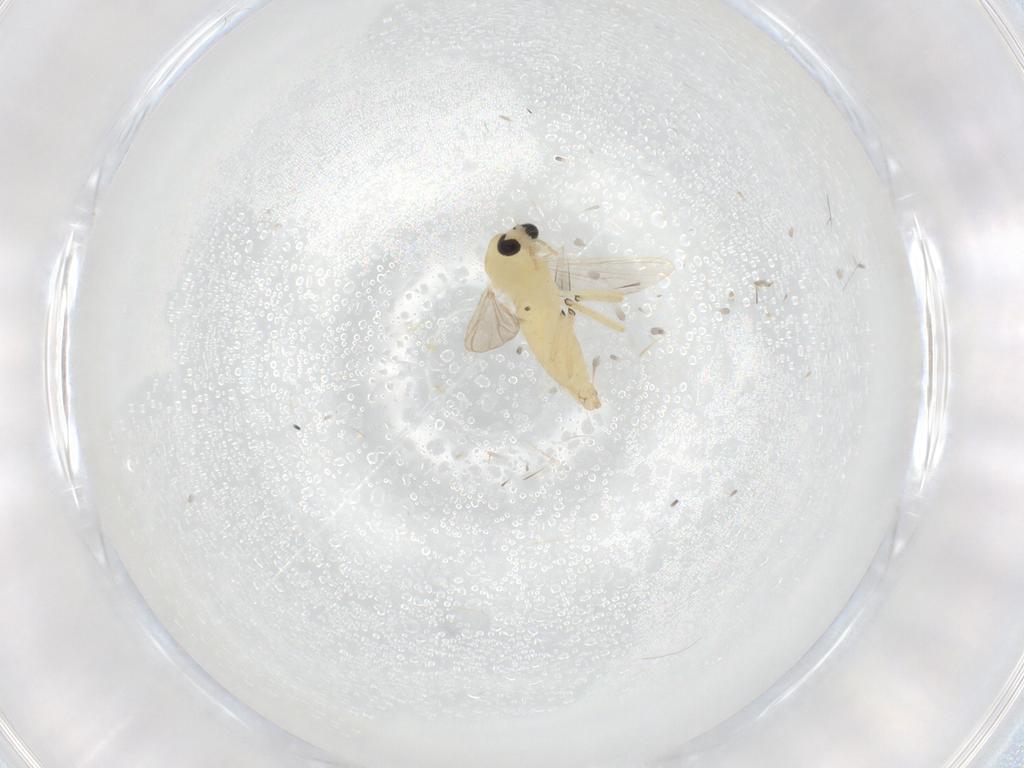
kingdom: Animalia
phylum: Arthropoda
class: Insecta
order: Diptera
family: Chironomidae
